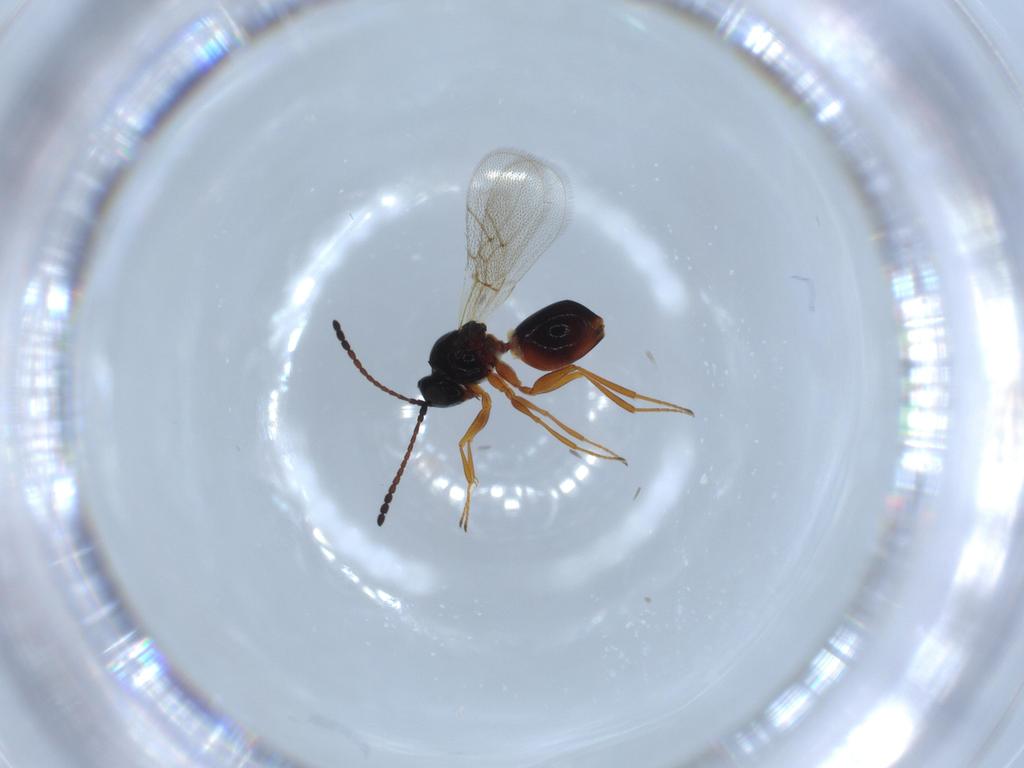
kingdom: Animalia
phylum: Arthropoda
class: Insecta
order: Hymenoptera
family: Figitidae
